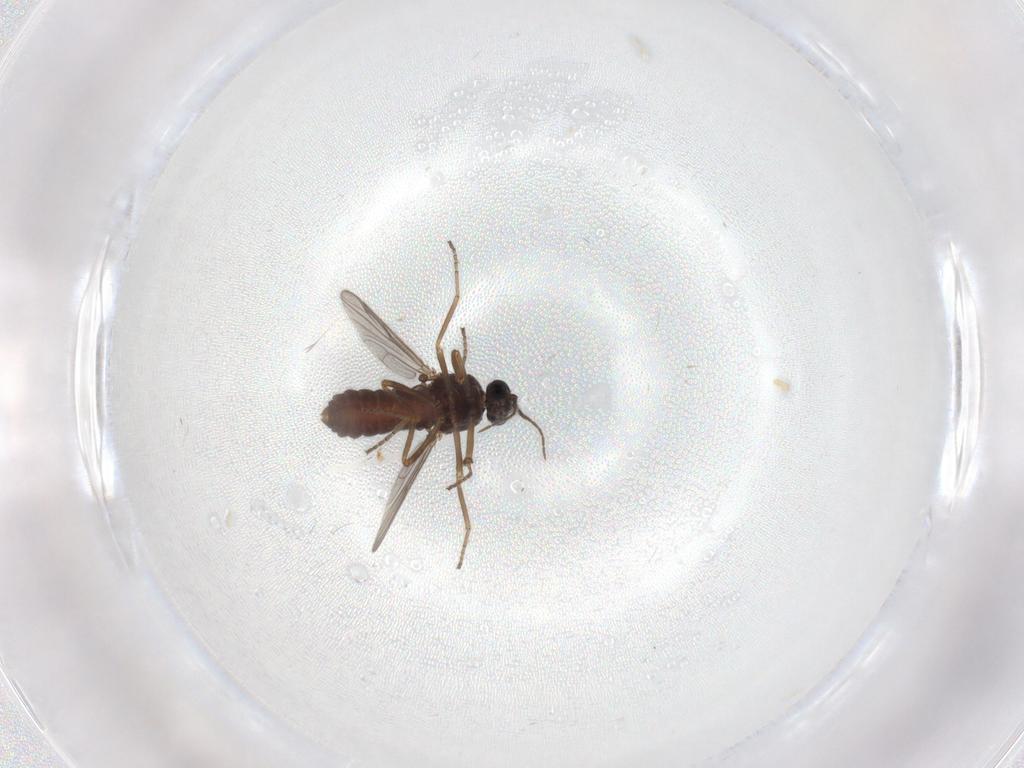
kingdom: Animalia
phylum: Arthropoda
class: Insecta
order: Diptera
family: Ceratopogonidae
